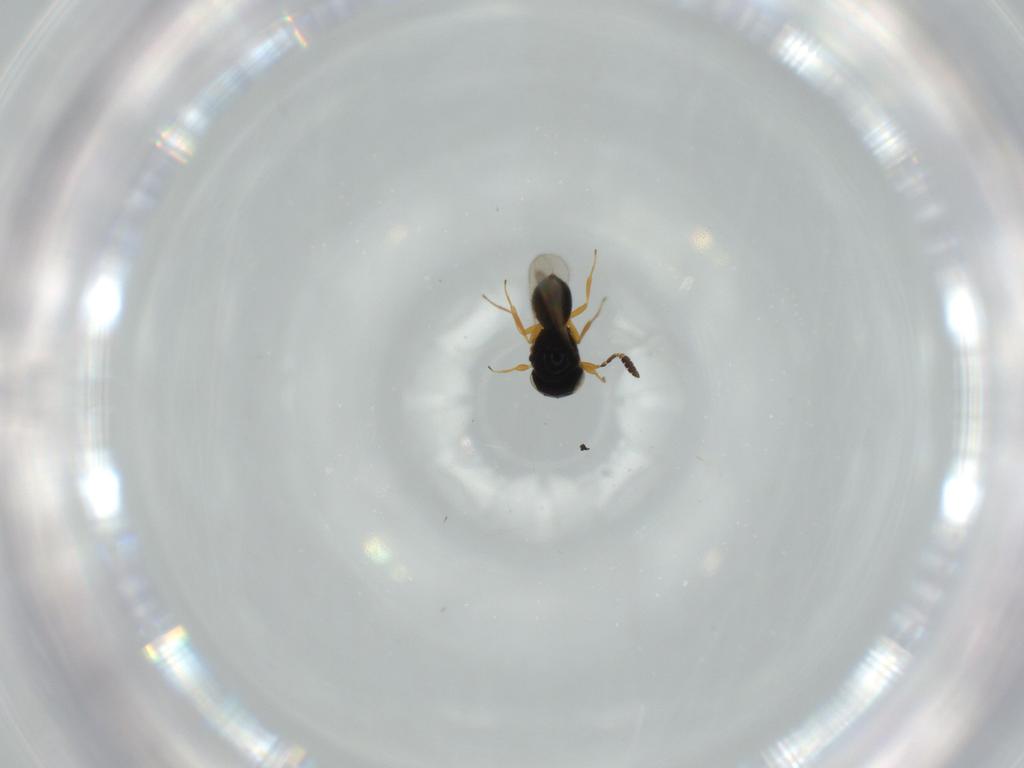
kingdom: Animalia
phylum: Arthropoda
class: Insecta
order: Hymenoptera
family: Scelionidae
